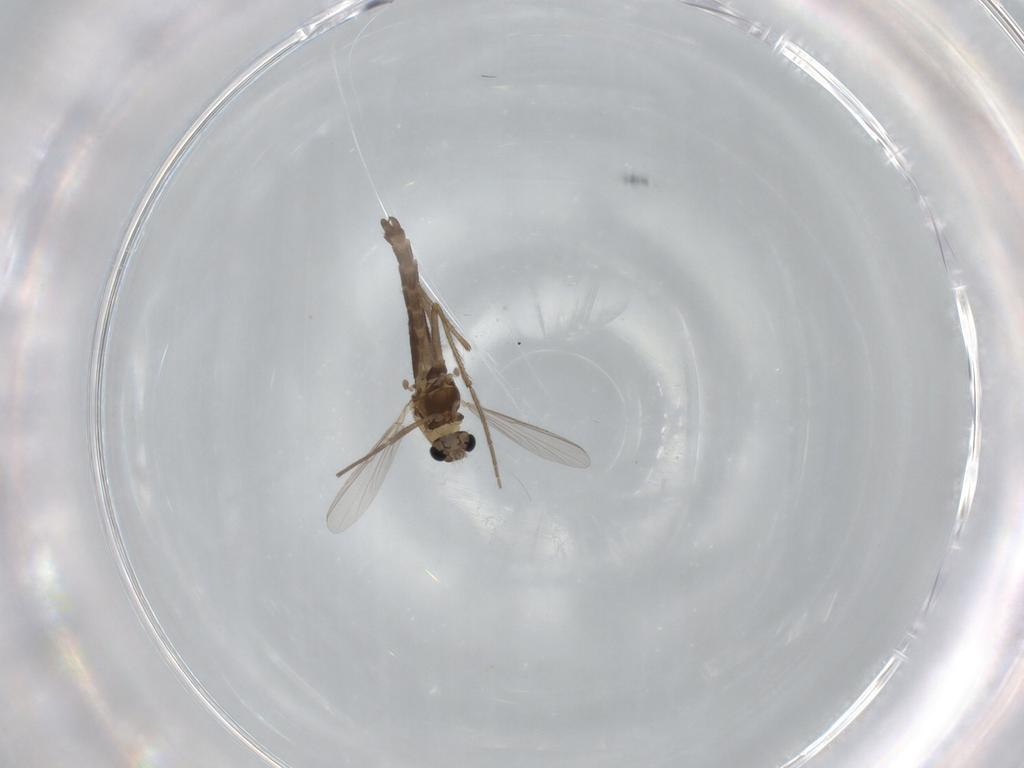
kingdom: Animalia
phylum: Arthropoda
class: Insecta
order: Diptera
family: Chironomidae
